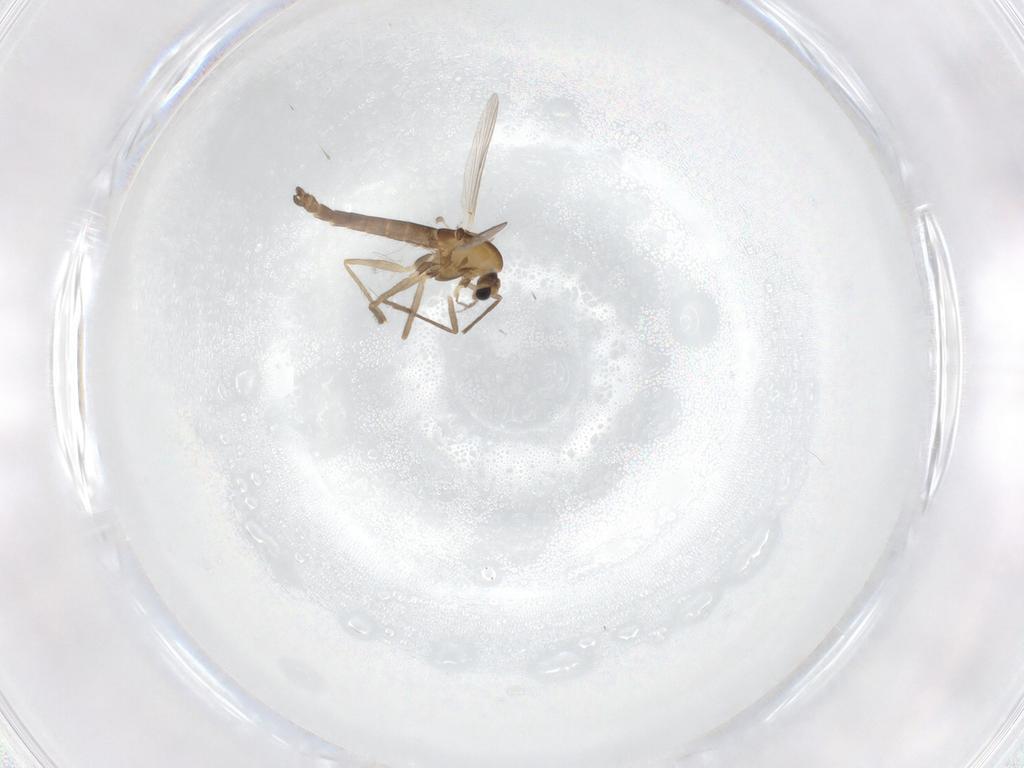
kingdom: Animalia
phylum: Arthropoda
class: Insecta
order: Diptera
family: Chironomidae
